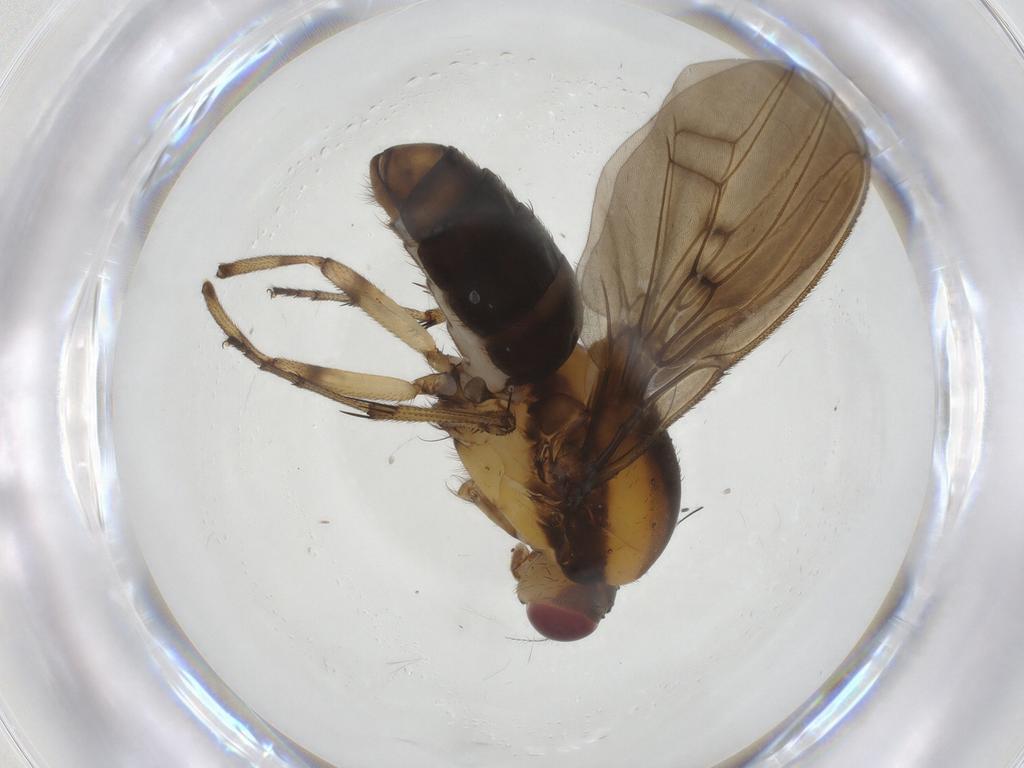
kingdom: Animalia
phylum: Arthropoda
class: Insecta
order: Diptera
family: Heleomyzidae
